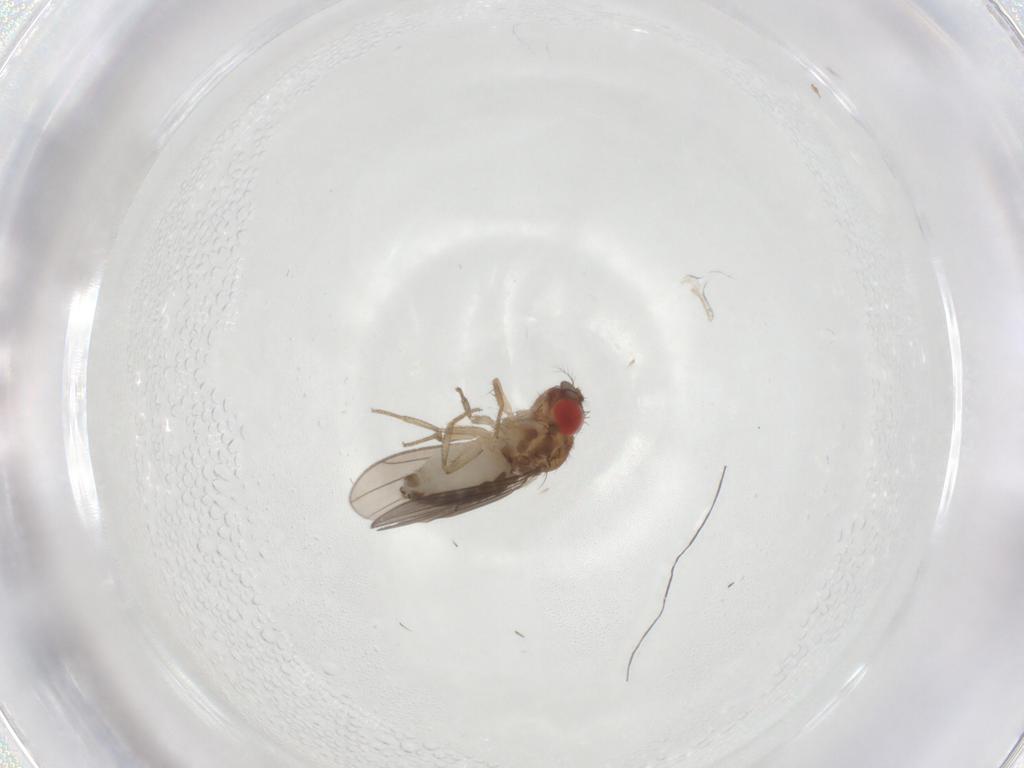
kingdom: Animalia
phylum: Arthropoda
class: Insecta
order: Diptera
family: Drosophilidae
